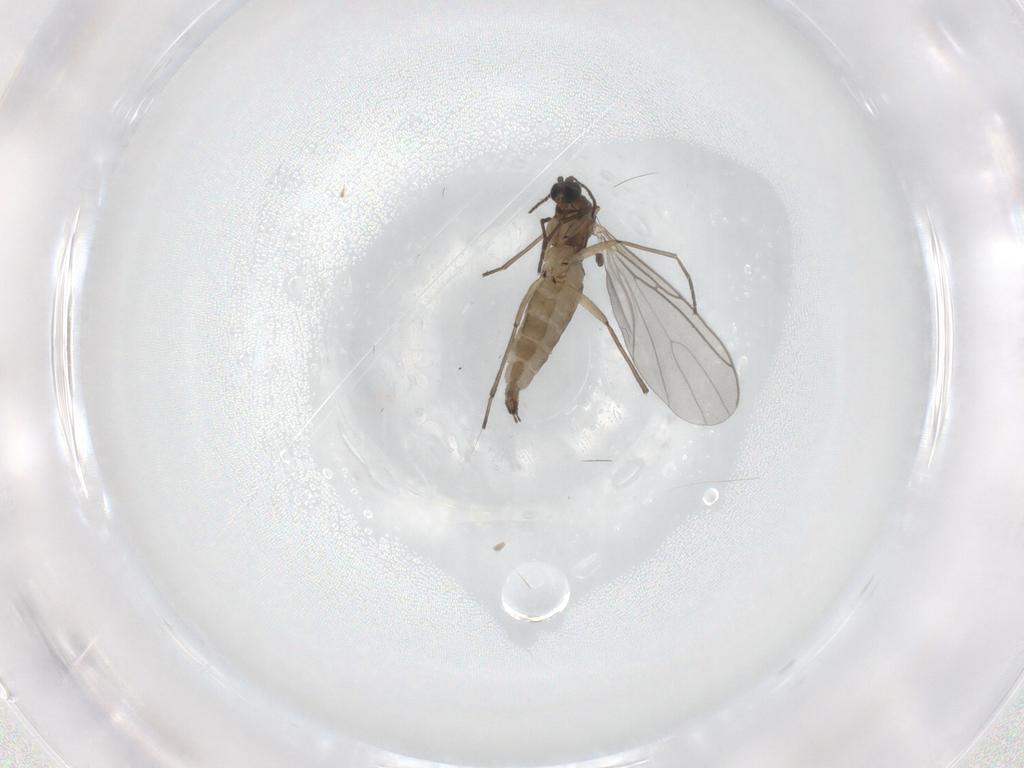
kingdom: Animalia
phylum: Arthropoda
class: Insecta
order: Diptera
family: Sciaridae
